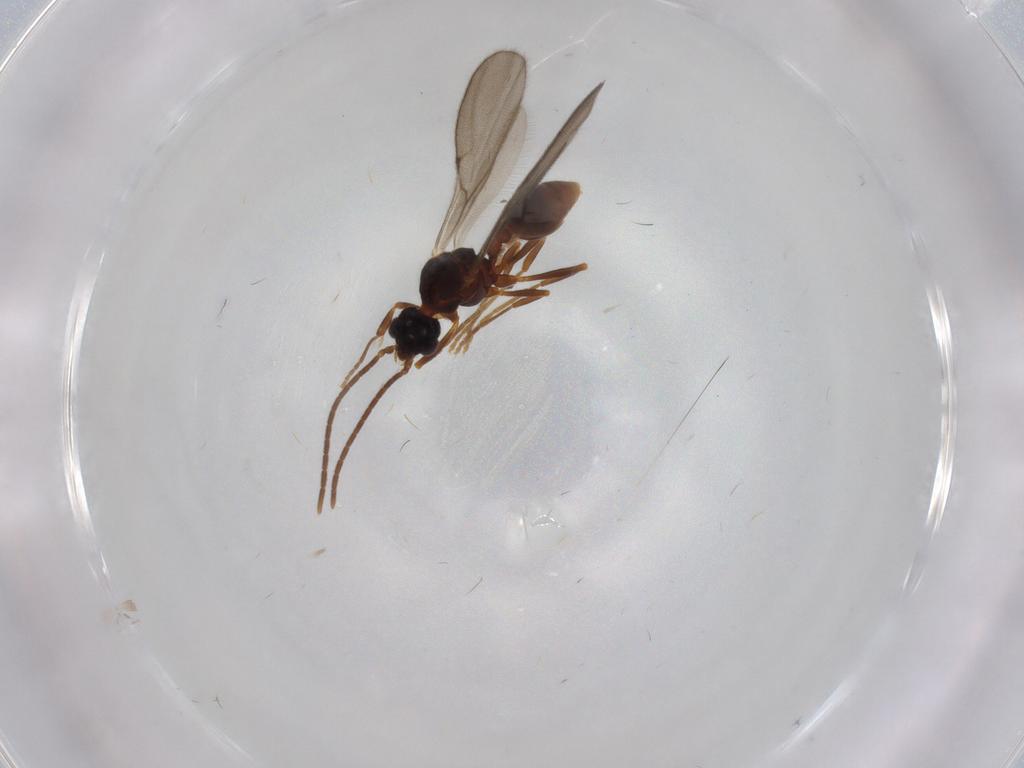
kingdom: Animalia
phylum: Arthropoda
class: Insecta
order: Hymenoptera
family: Formicidae
